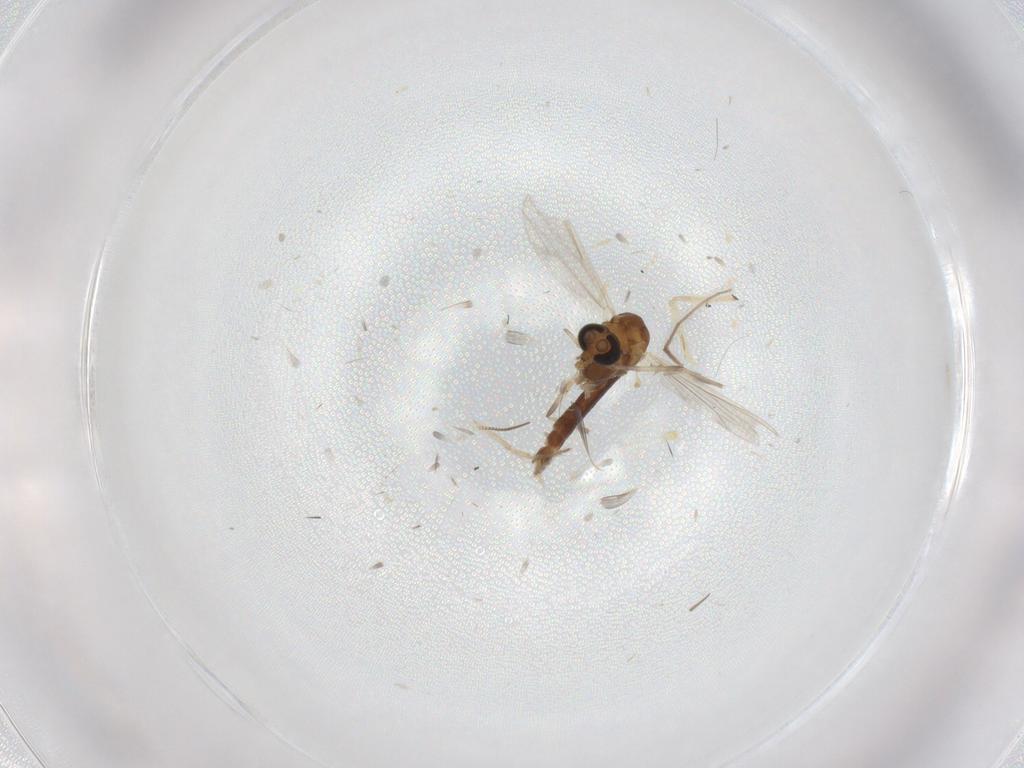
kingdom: Animalia
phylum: Arthropoda
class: Insecta
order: Diptera
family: Chironomidae
